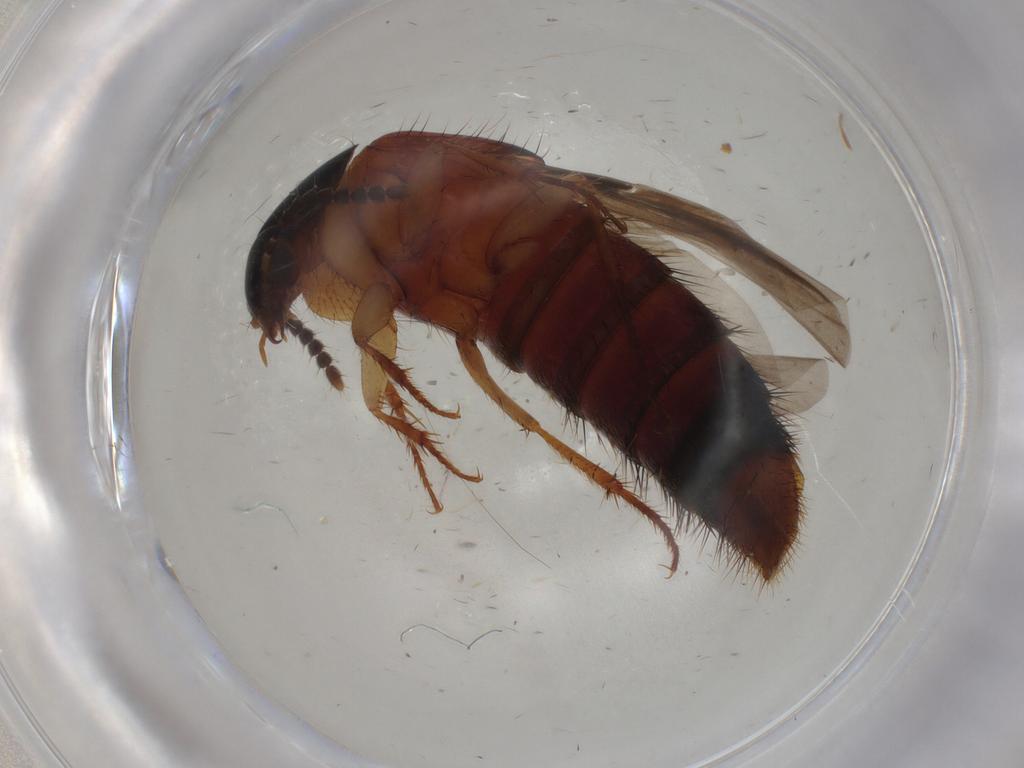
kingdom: Animalia
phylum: Arthropoda
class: Insecta
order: Coleoptera
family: Staphylinidae
